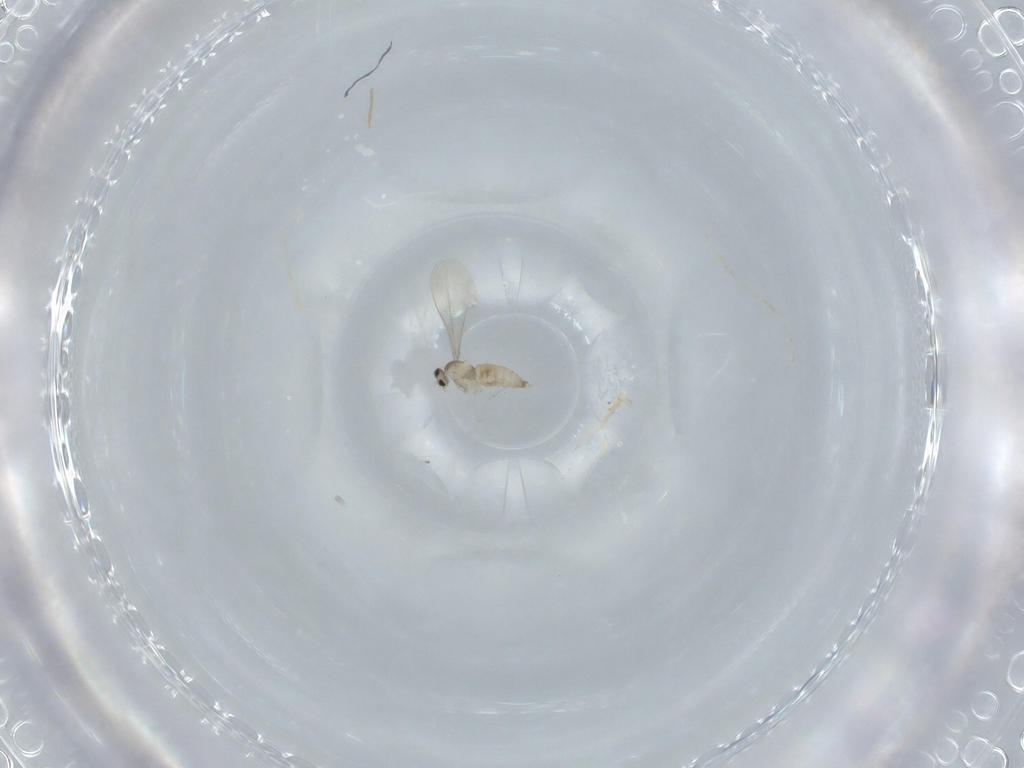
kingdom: Animalia
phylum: Arthropoda
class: Insecta
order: Diptera
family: Cecidomyiidae
